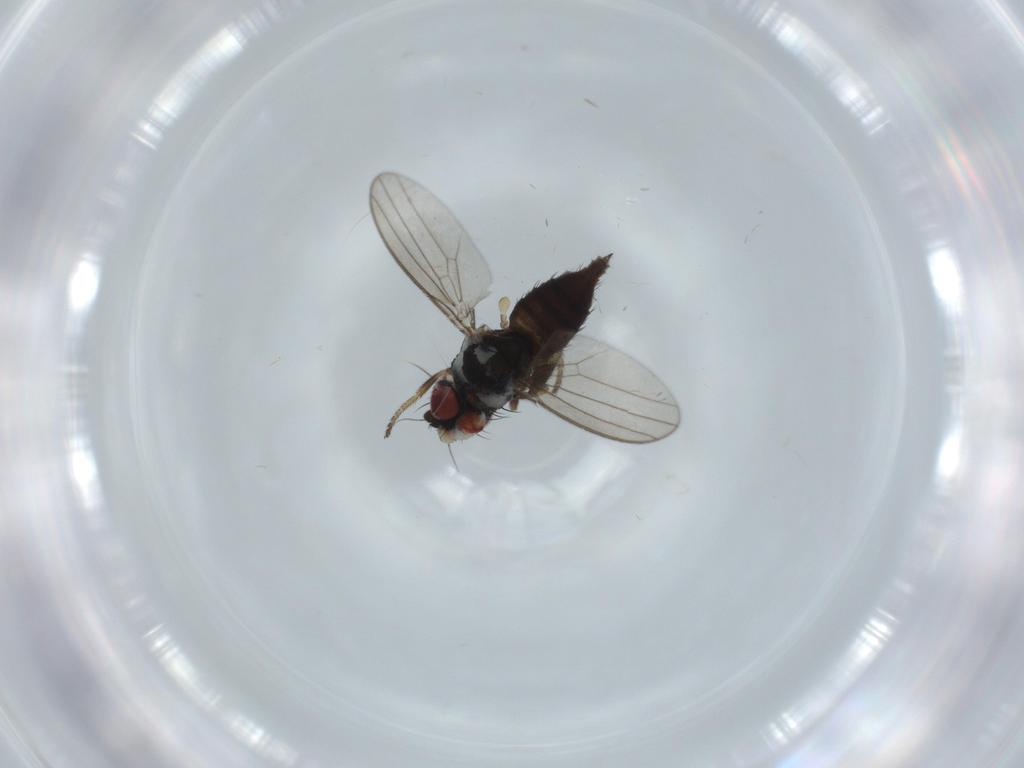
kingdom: Animalia
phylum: Arthropoda
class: Insecta
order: Diptera
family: Milichiidae
